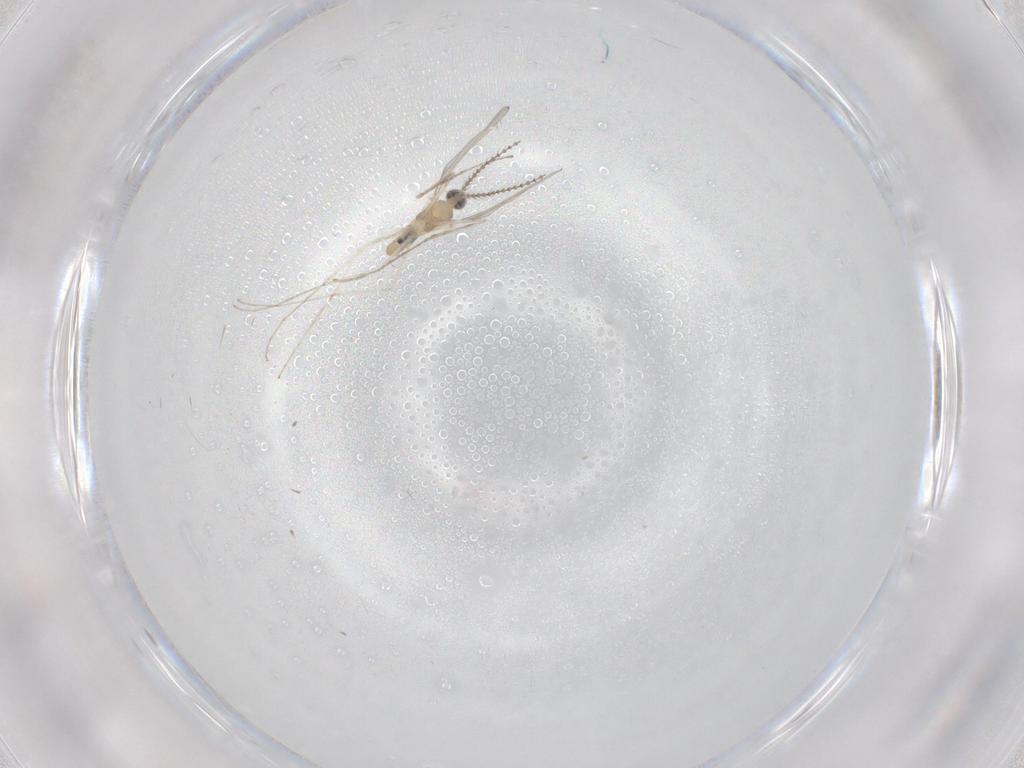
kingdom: Animalia
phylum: Arthropoda
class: Insecta
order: Diptera
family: Cecidomyiidae
